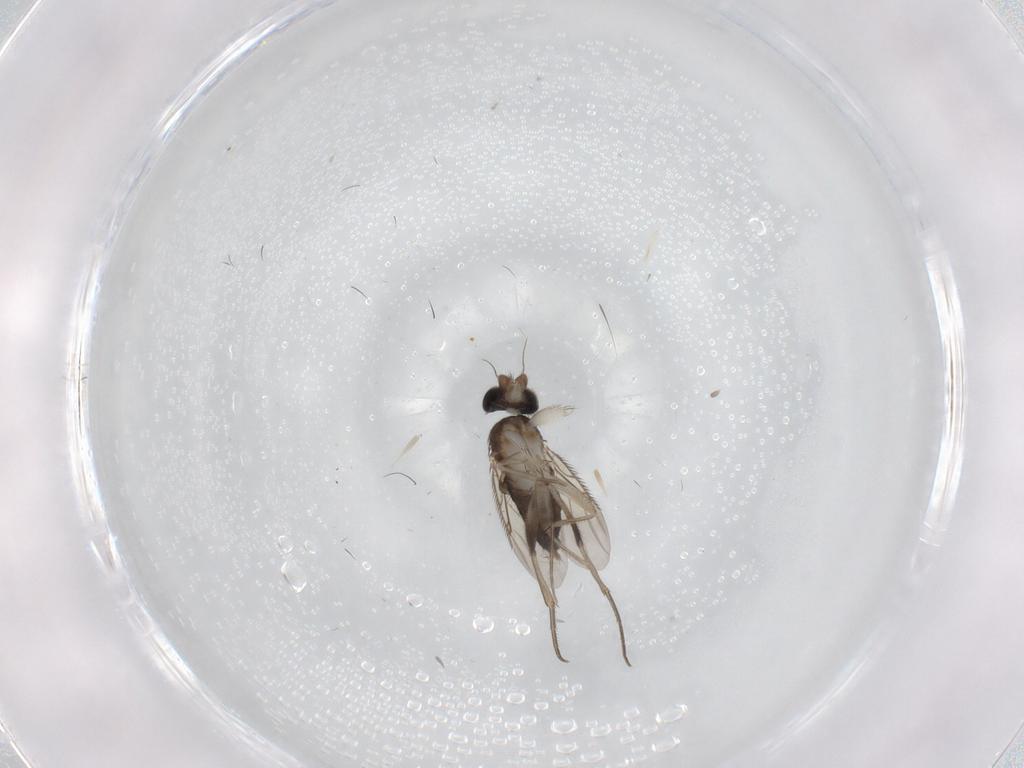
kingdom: Animalia
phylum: Arthropoda
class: Insecta
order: Diptera
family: Phoridae
